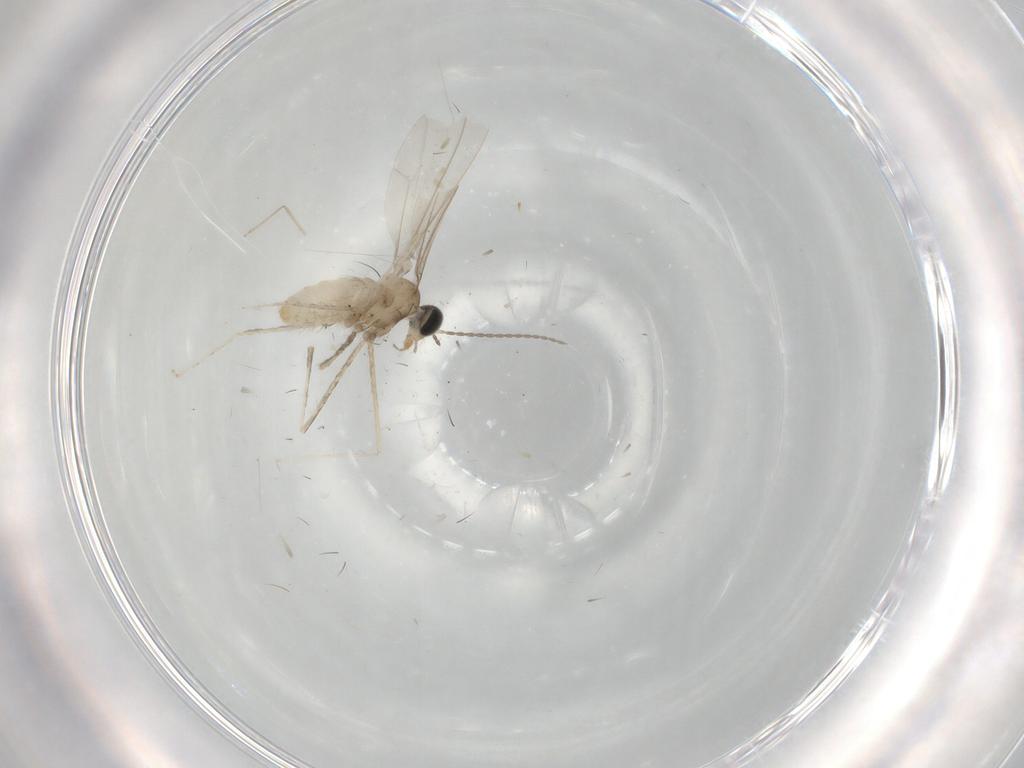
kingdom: Animalia
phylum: Arthropoda
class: Insecta
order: Diptera
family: Cecidomyiidae
